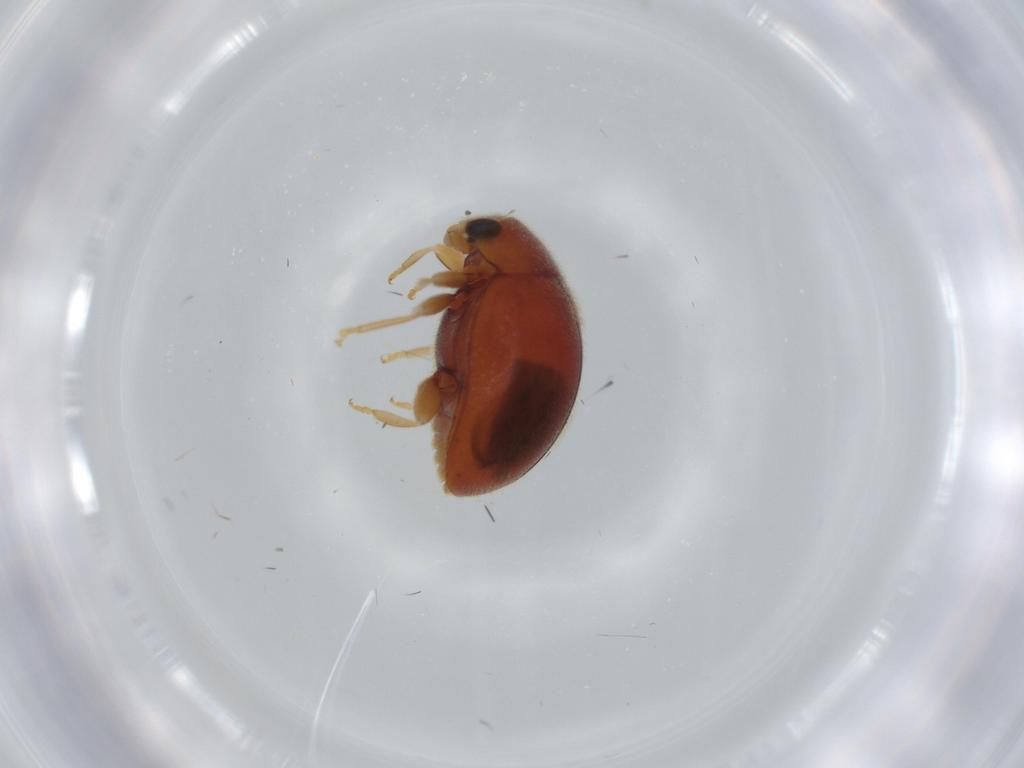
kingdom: Animalia
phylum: Arthropoda
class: Insecta
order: Coleoptera
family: Coccinellidae
